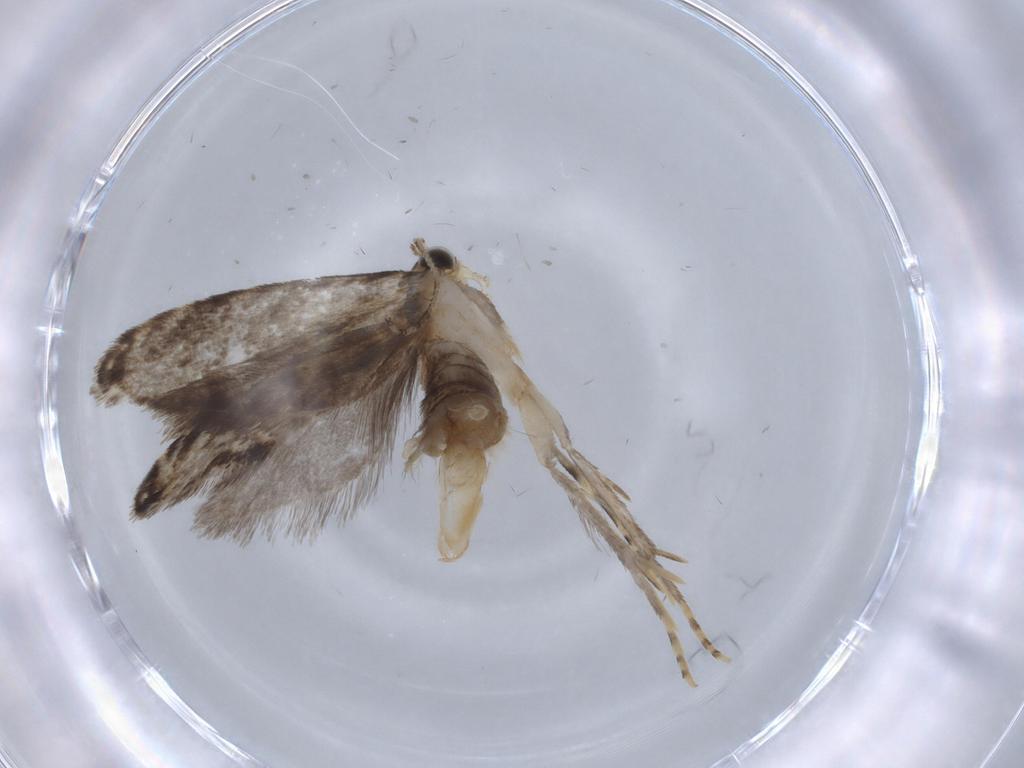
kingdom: Animalia
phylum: Arthropoda
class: Insecta
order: Lepidoptera
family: Tineidae
